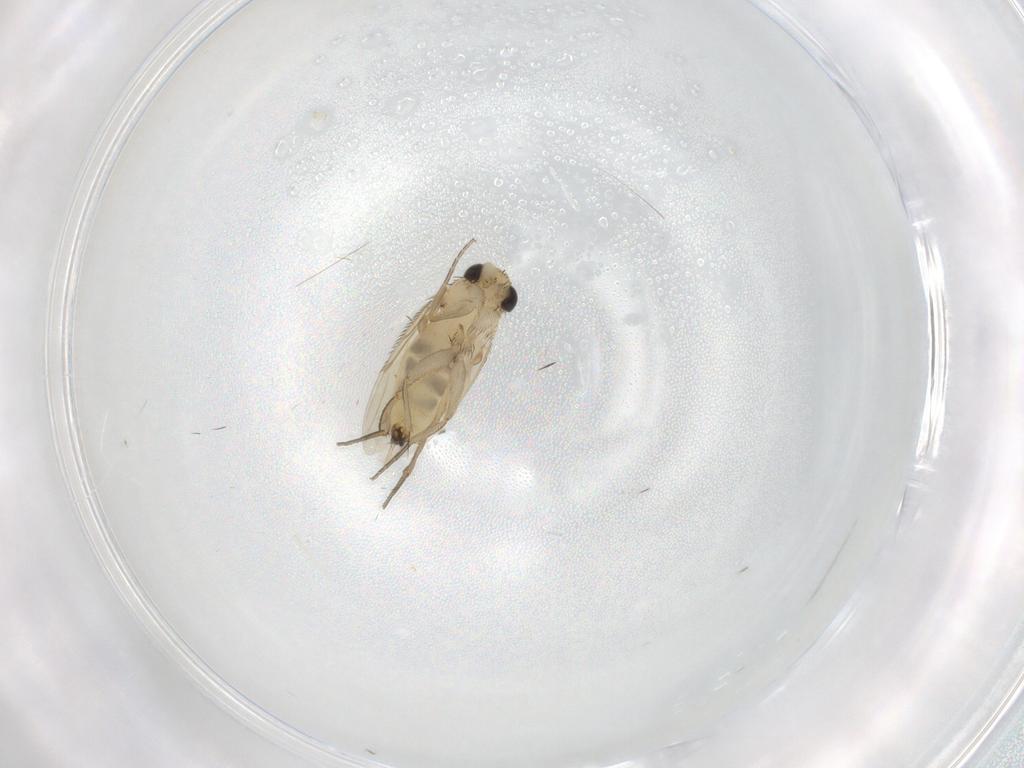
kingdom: Animalia
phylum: Arthropoda
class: Insecta
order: Diptera
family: Phoridae
